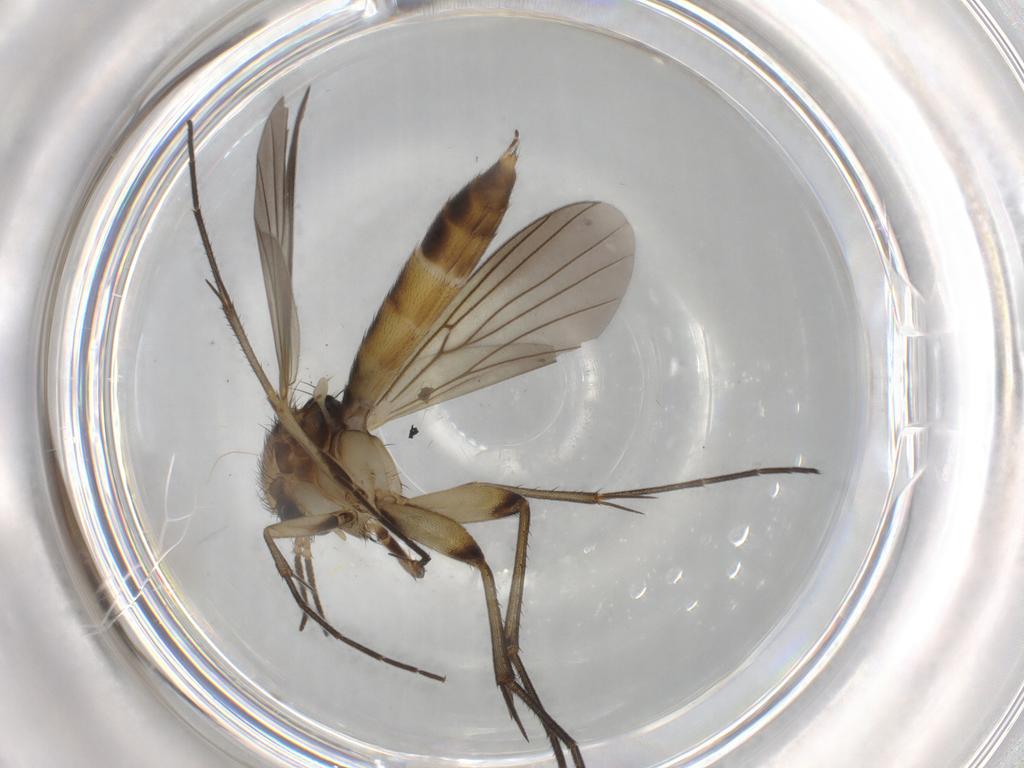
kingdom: Animalia
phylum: Arthropoda
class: Insecta
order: Diptera
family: Mycetophilidae
